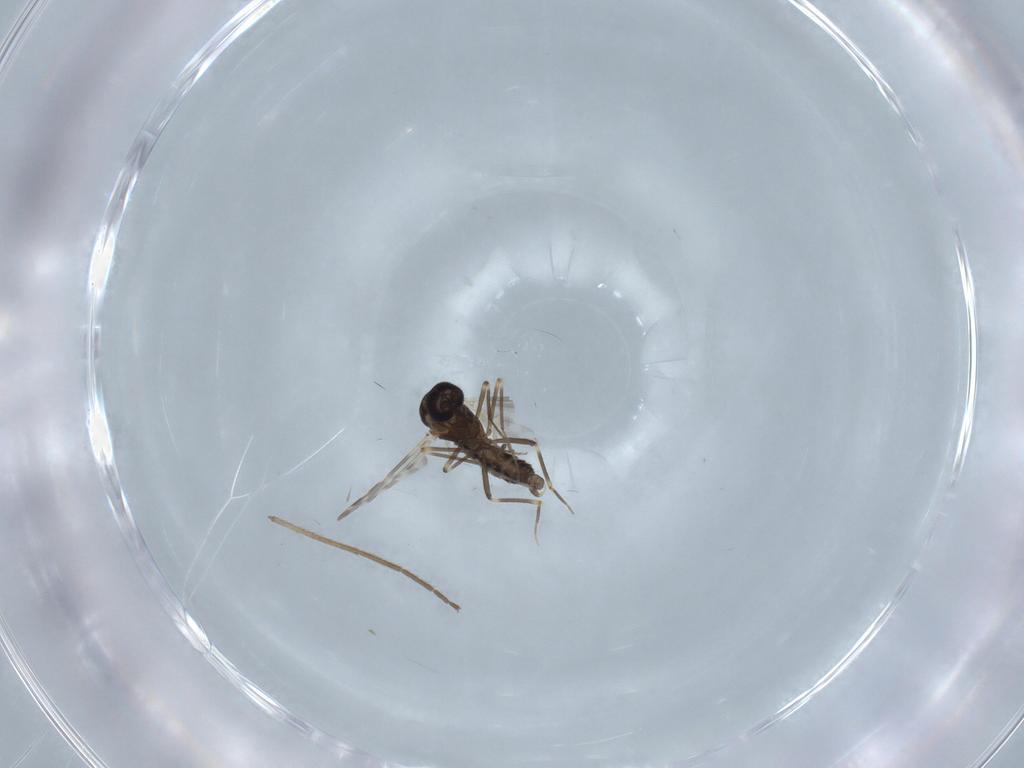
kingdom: Animalia
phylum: Arthropoda
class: Insecta
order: Diptera
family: Ceratopogonidae
